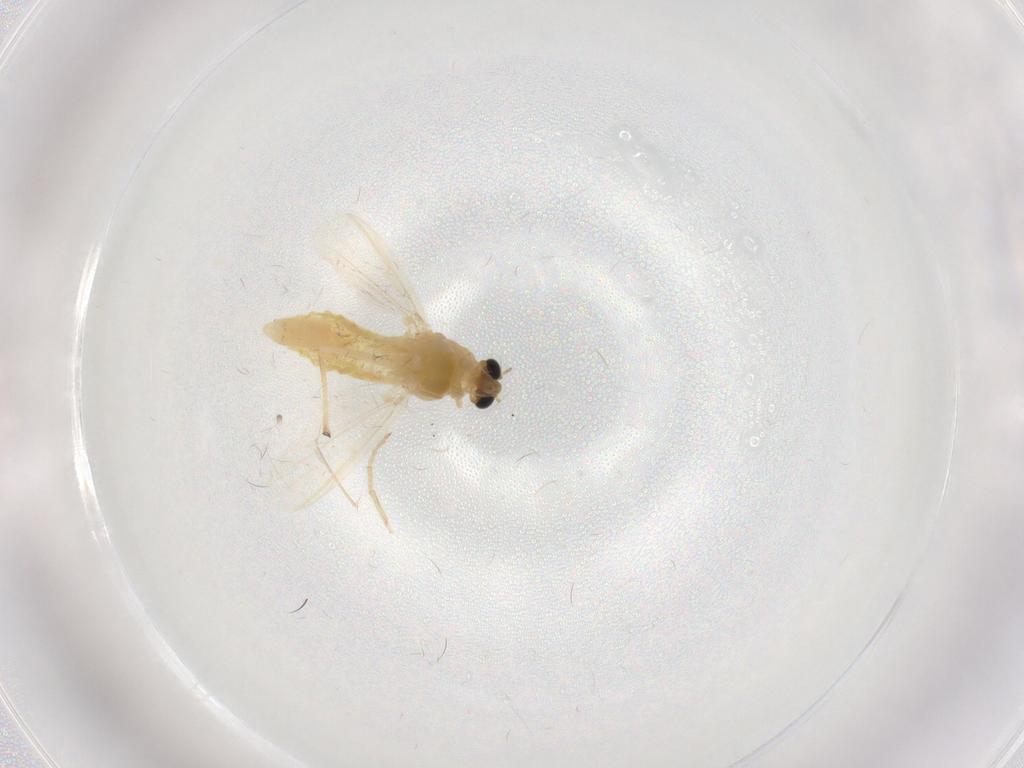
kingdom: Animalia
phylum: Arthropoda
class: Insecta
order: Diptera
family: Chironomidae
